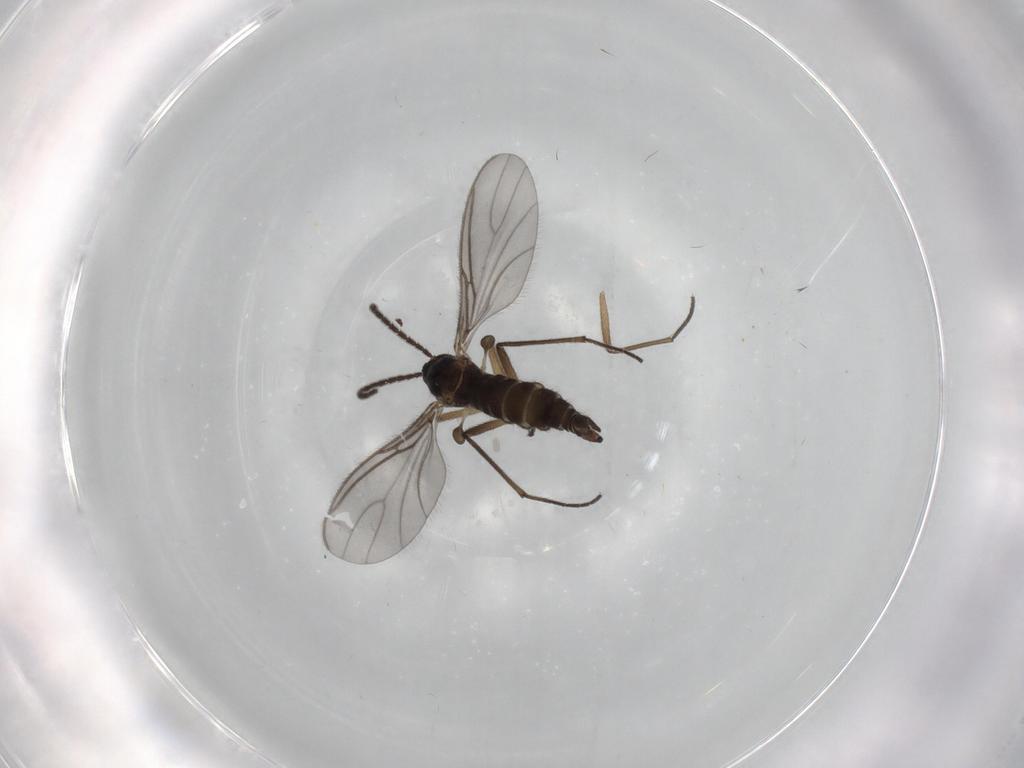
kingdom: Animalia
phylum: Arthropoda
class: Insecta
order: Diptera
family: Sciaridae
